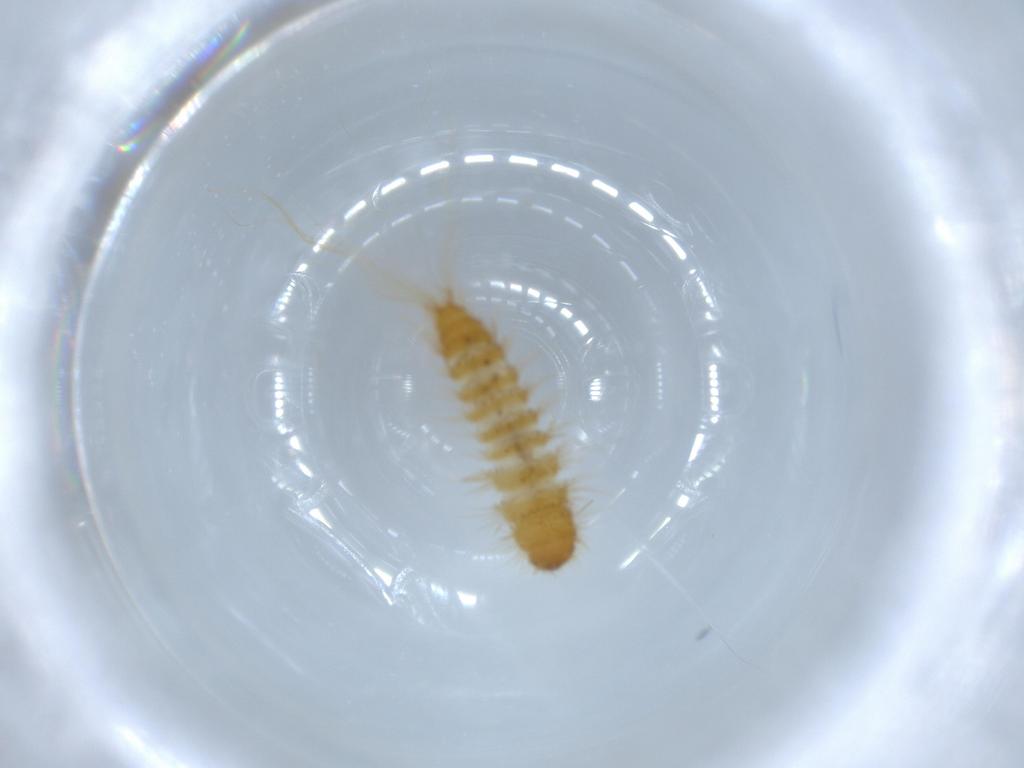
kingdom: Animalia
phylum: Arthropoda
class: Insecta
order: Coleoptera
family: Dermestidae
